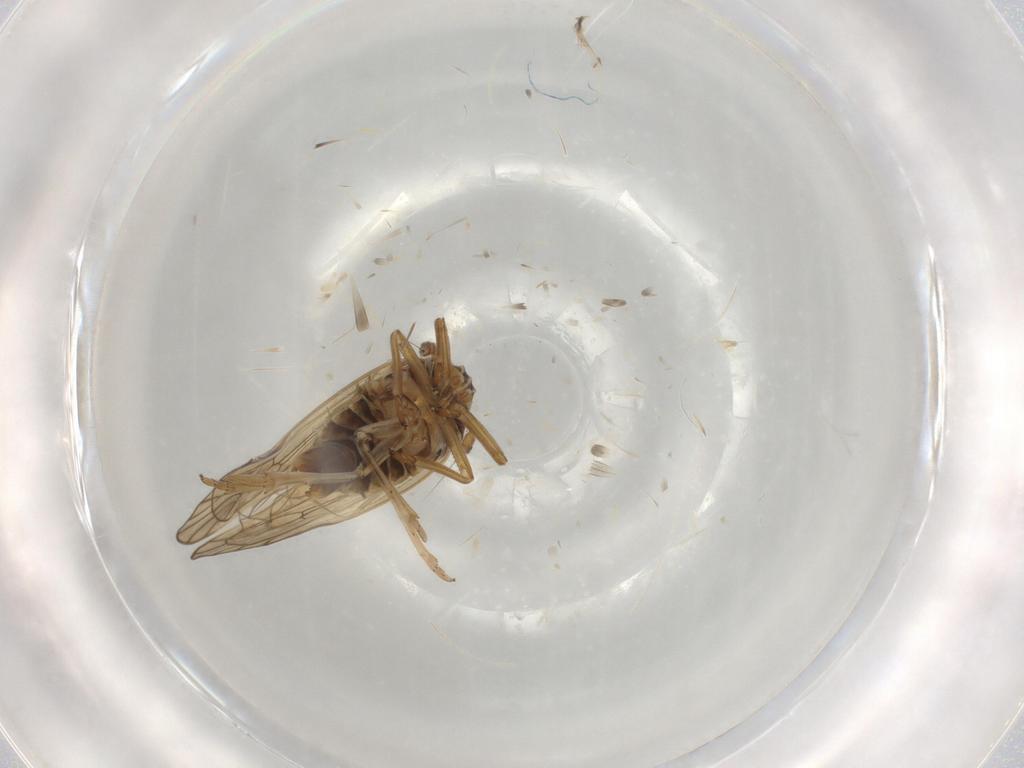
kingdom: Animalia
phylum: Arthropoda
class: Insecta
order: Hemiptera
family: Delphacidae
